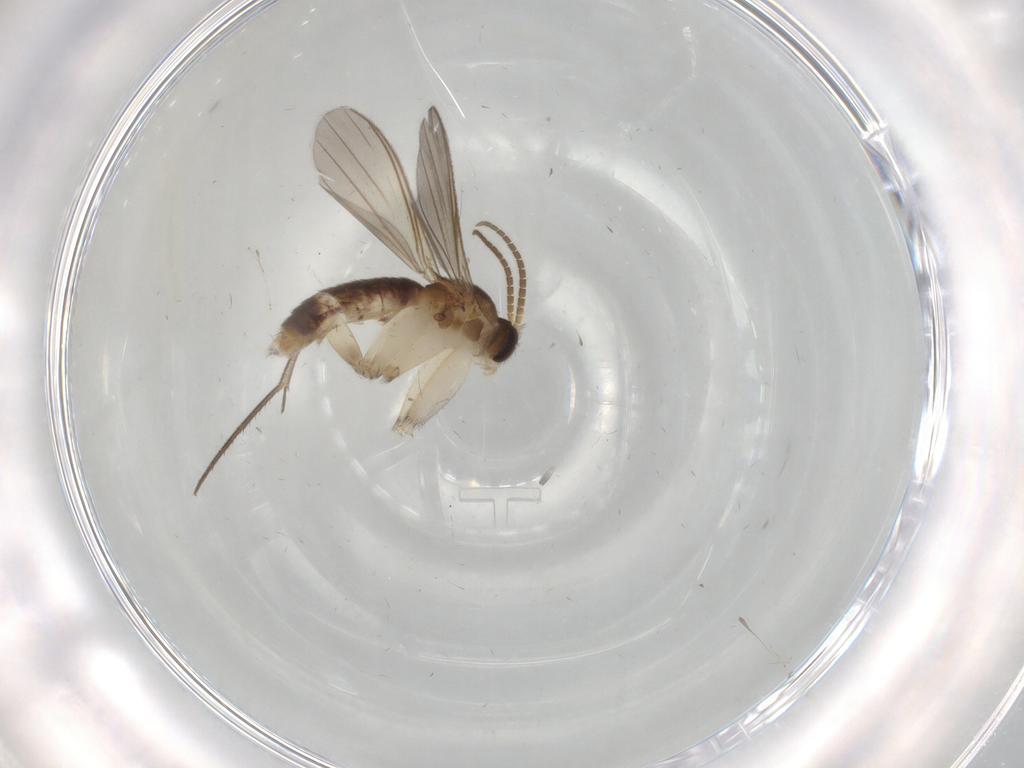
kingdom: Animalia
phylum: Arthropoda
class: Insecta
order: Diptera
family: Mycetophilidae
